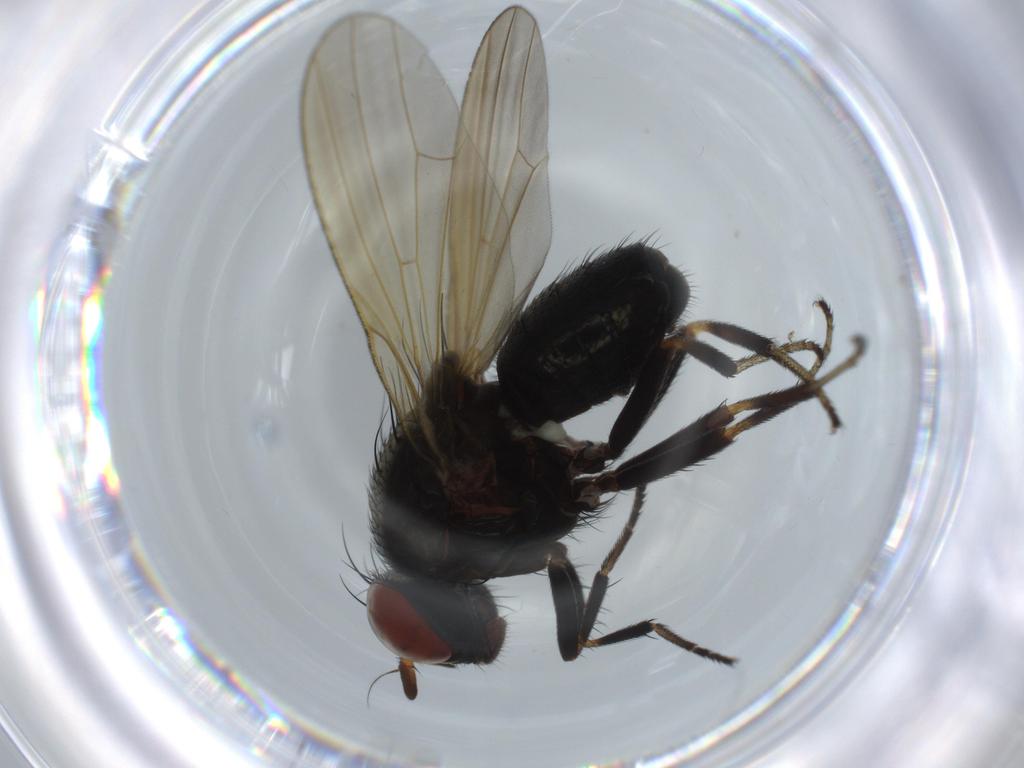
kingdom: Animalia
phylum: Arthropoda
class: Insecta
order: Diptera
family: Lauxaniidae
